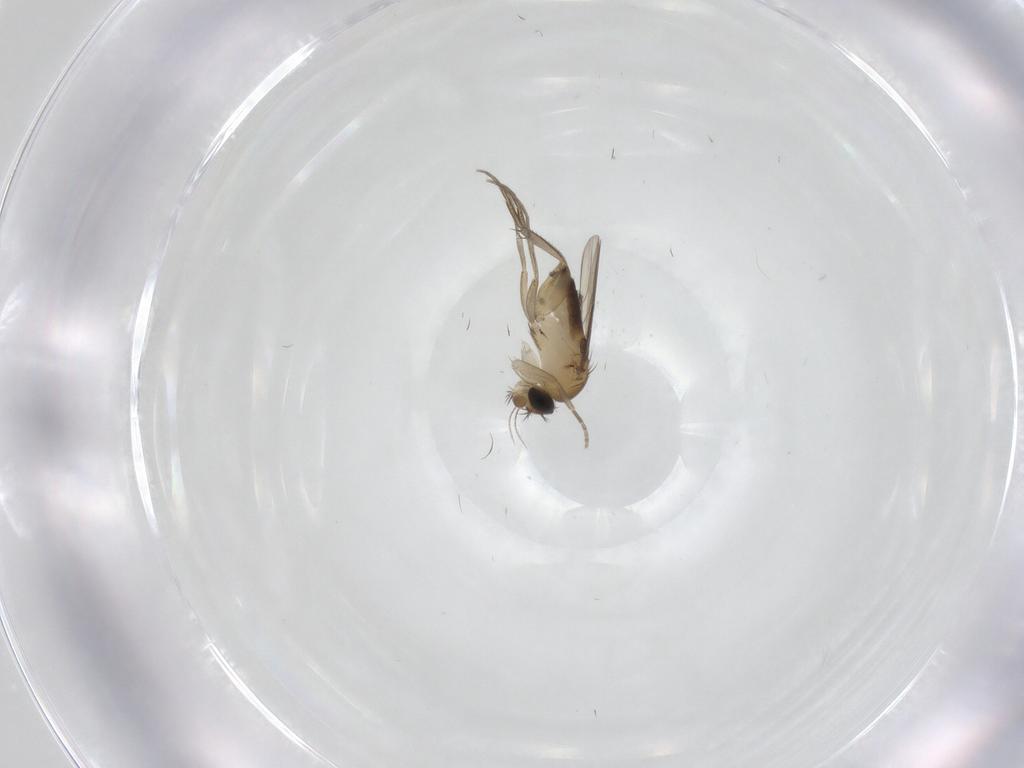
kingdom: Animalia
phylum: Arthropoda
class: Insecta
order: Diptera
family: Phoridae
